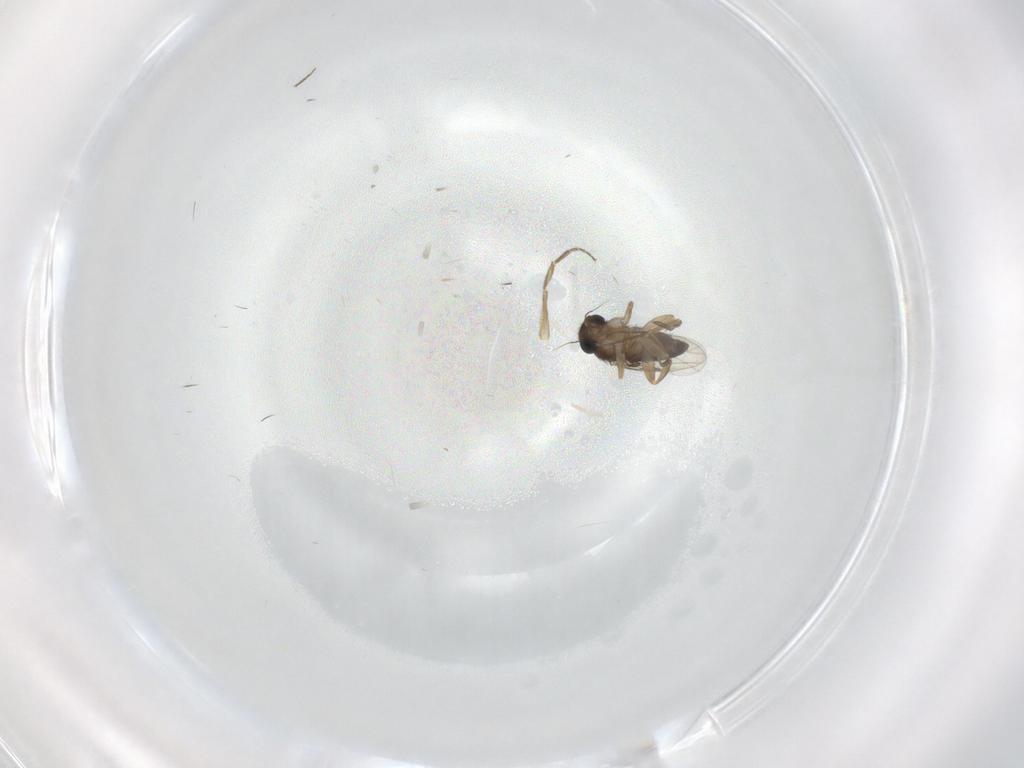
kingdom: Animalia
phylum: Arthropoda
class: Insecta
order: Diptera
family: Phoridae
